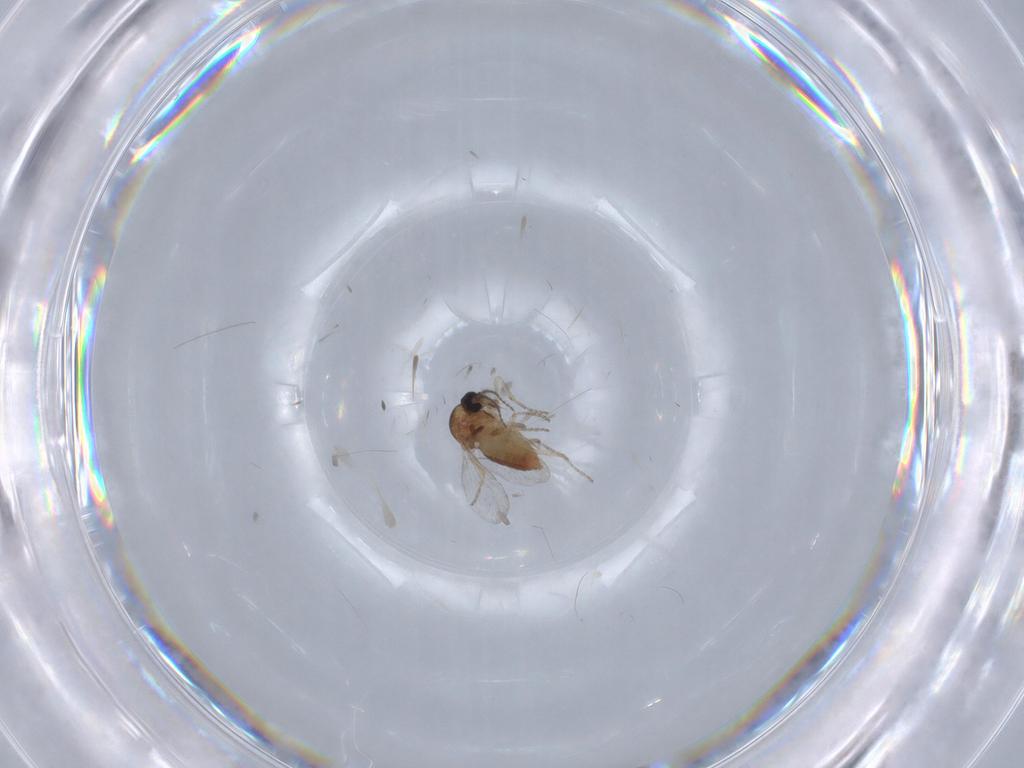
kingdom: Animalia
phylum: Arthropoda
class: Insecta
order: Diptera
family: Ceratopogonidae
